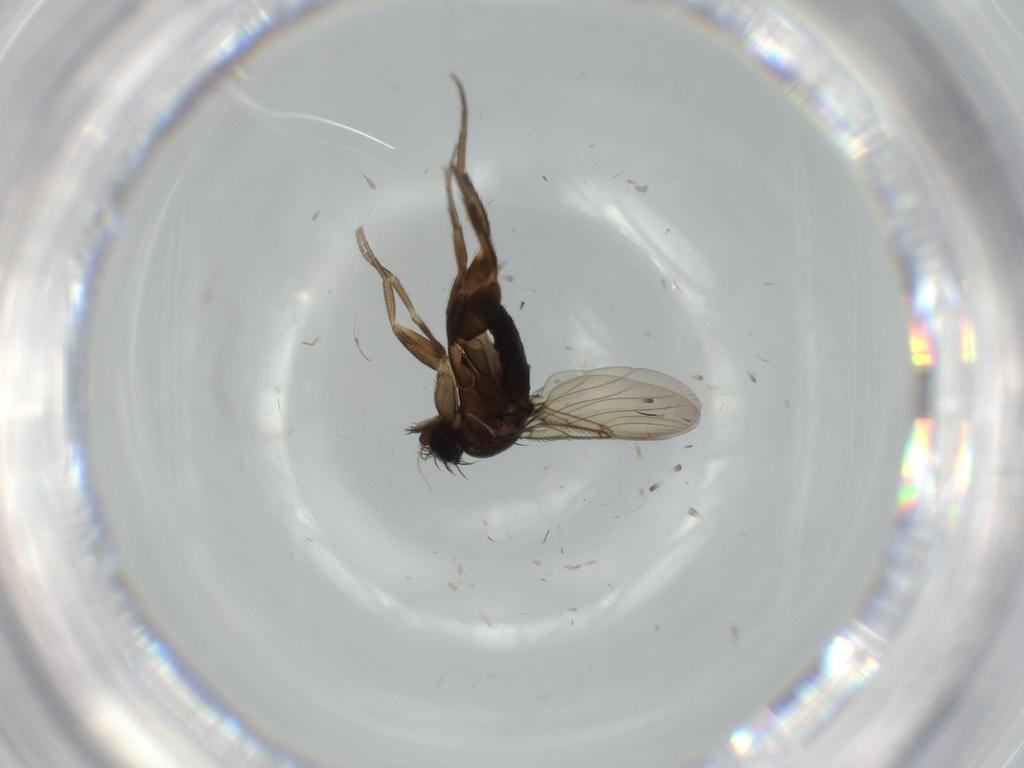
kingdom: Animalia
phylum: Arthropoda
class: Insecta
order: Diptera
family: Phoridae
